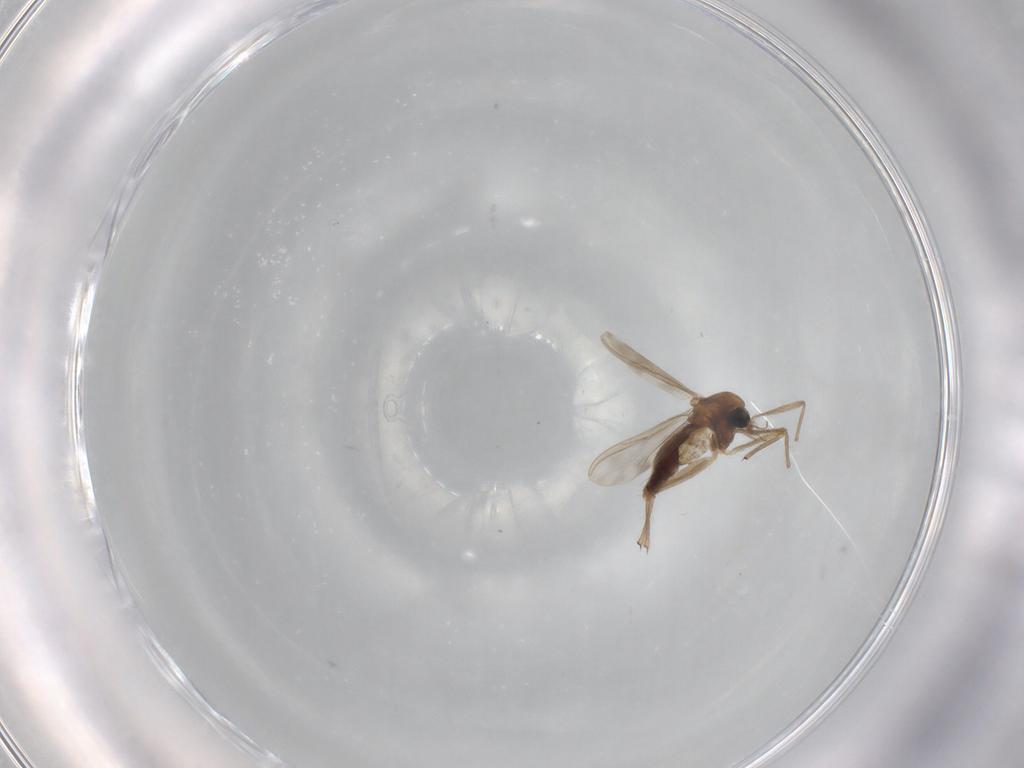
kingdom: Animalia
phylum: Arthropoda
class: Insecta
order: Diptera
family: Chironomidae
